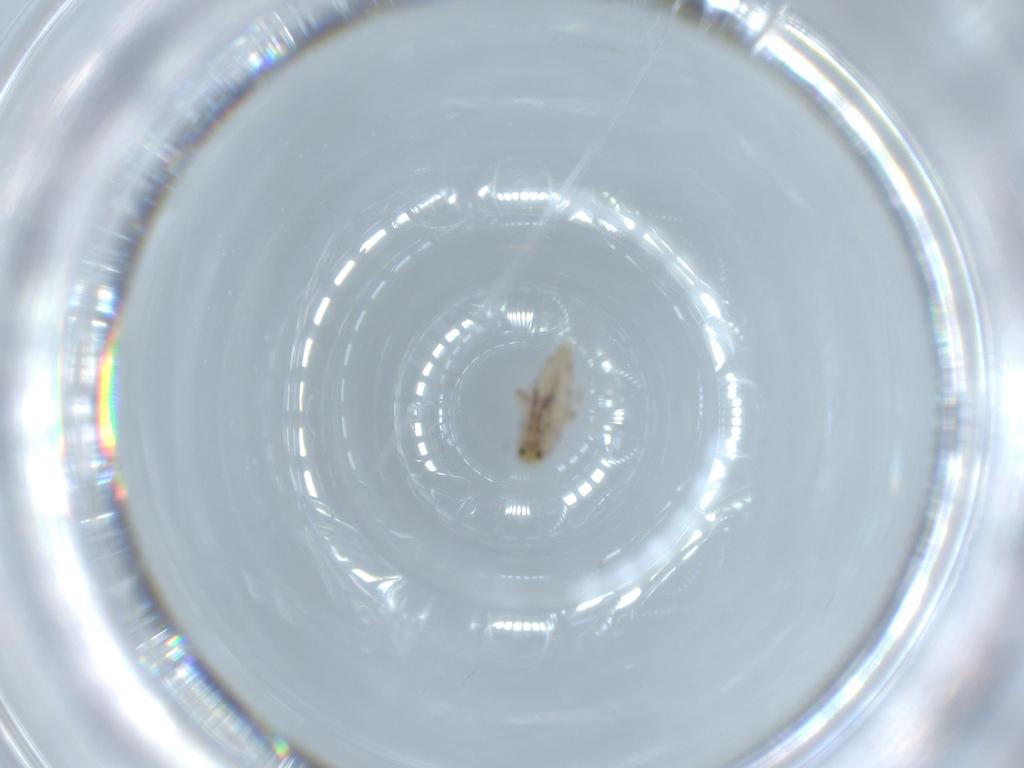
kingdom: Animalia
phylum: Arthropoda
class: Collembola
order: Entomobryomorpha
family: Entomobryidae
